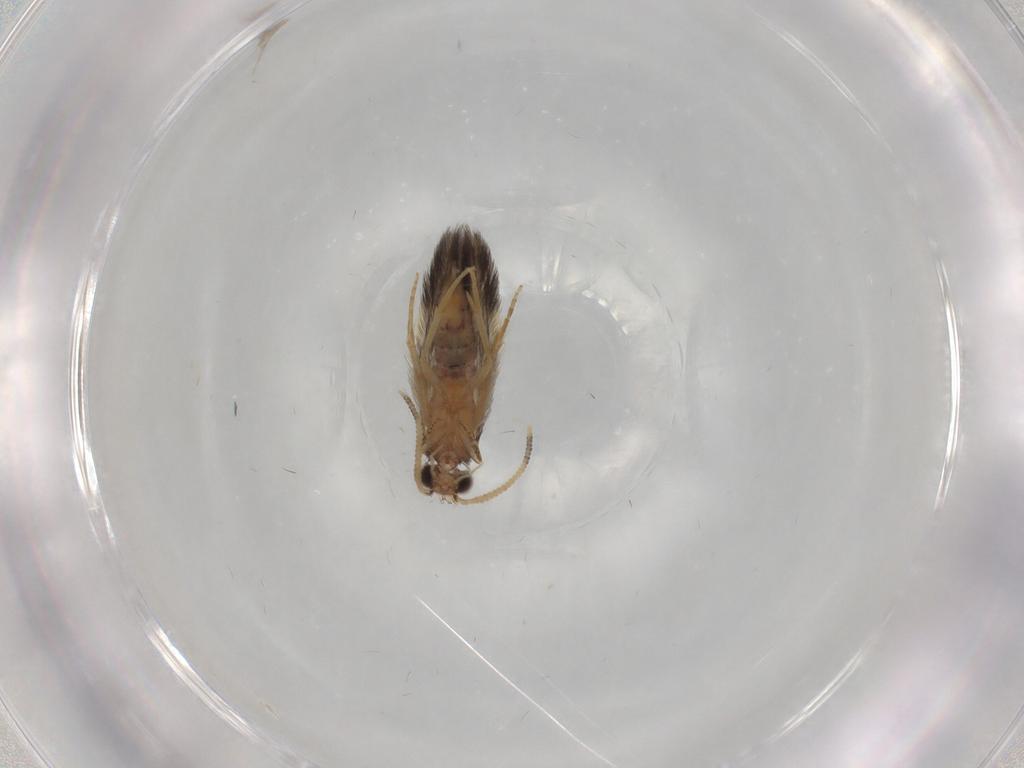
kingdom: Animalia
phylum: Arthropoda
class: Insecta
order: Trichoptera
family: Hydroptilidae
